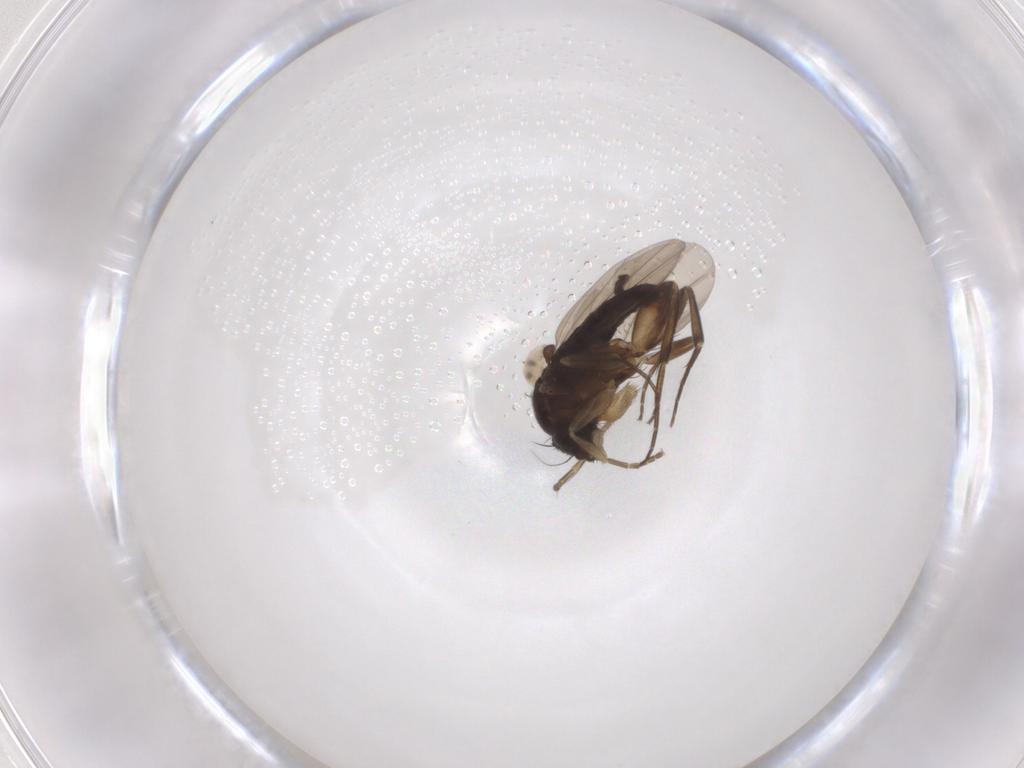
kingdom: Animalia
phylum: Arthropoda
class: Insecta
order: Diptera
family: Phoridae
